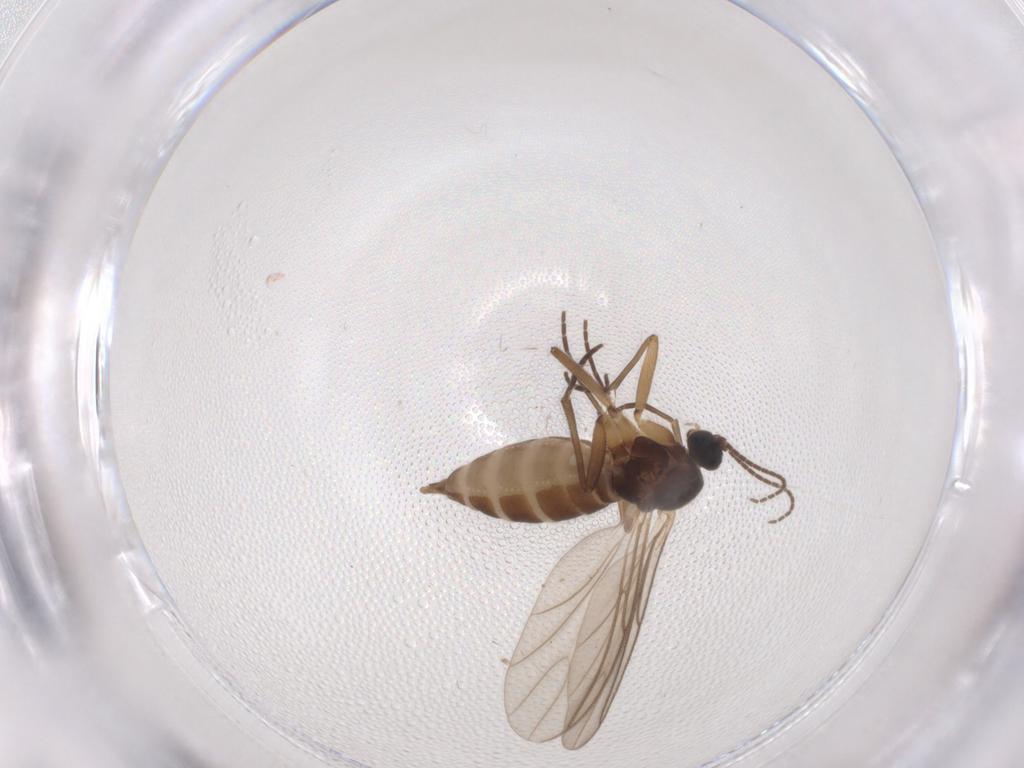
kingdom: Animalia
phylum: Arthropoda
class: Insecta
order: Diptera
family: Sciaridae
